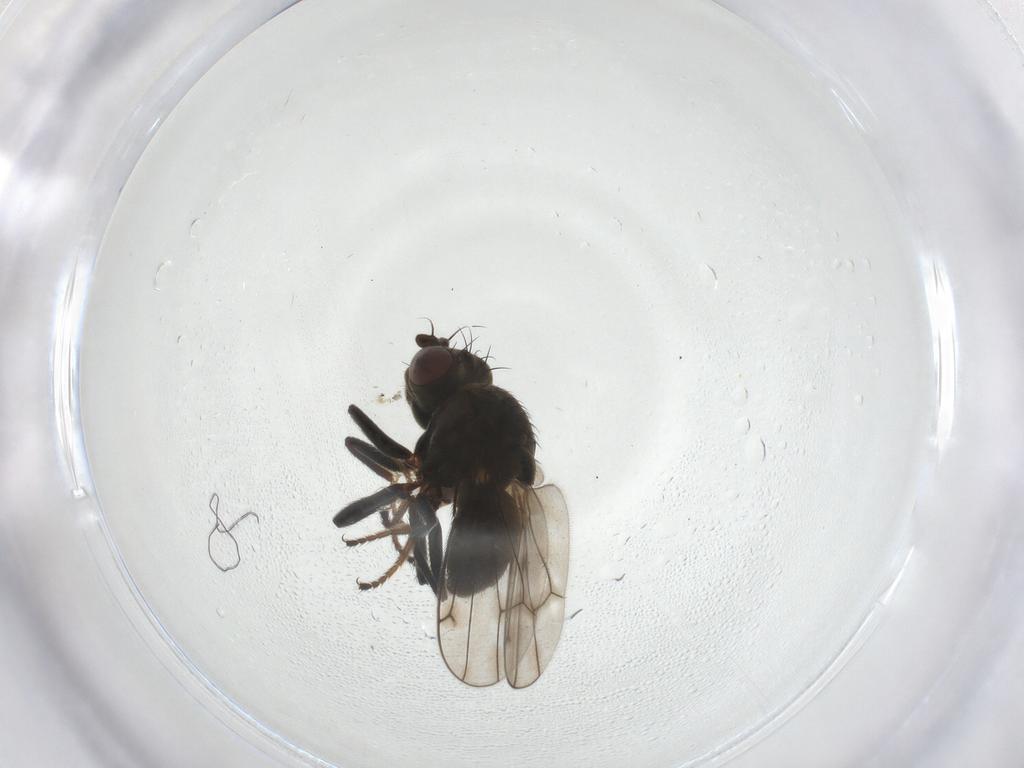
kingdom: Animalia
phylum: Arthropoda
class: Insecta
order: Diptera
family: Ephydridae
